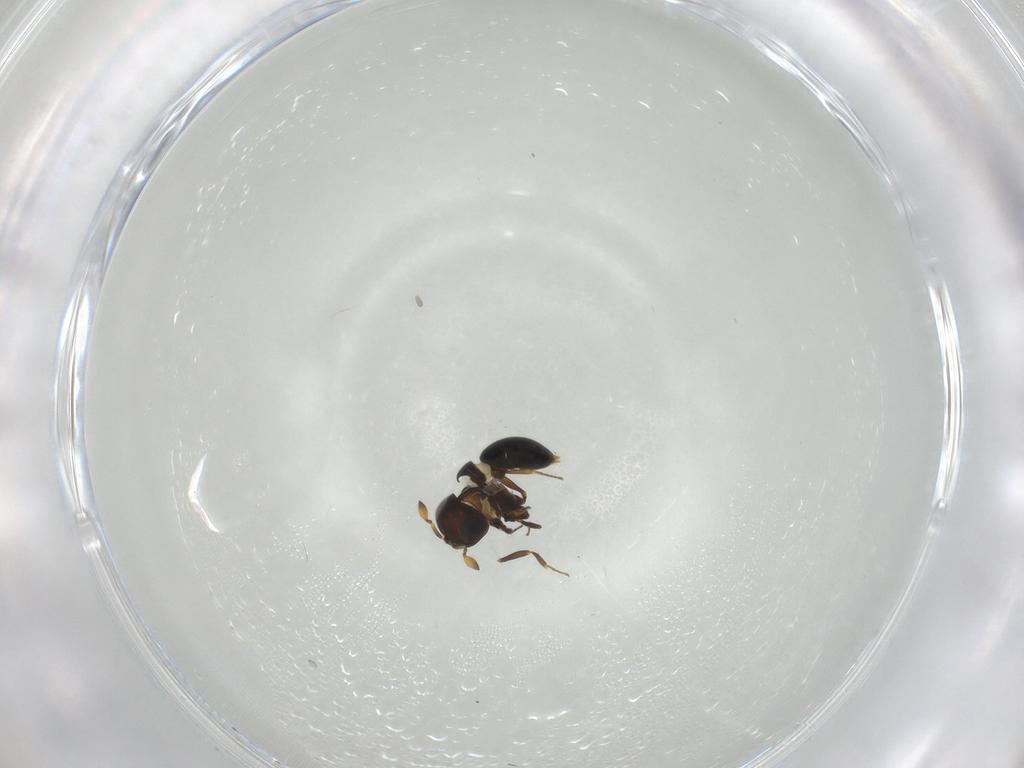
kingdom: Animalia
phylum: Arthropoda
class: Insecta
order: Hymenoptera
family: Scelionidae
